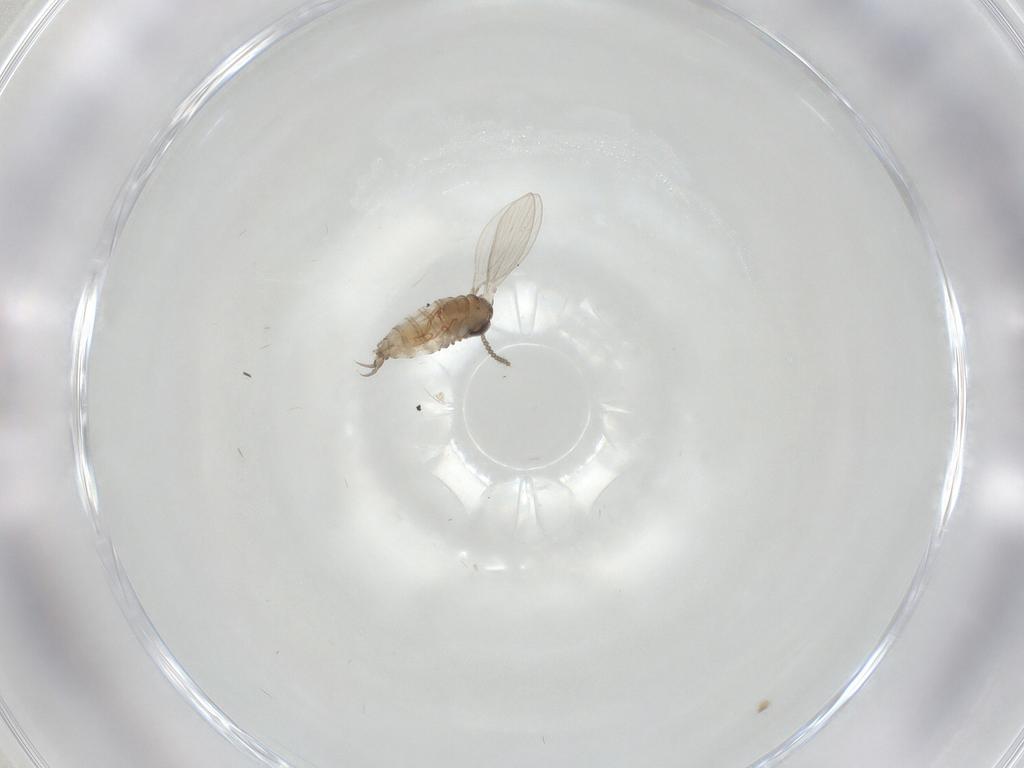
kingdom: Animalia
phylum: Arthropoda
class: Insecta
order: Diptera
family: Psychodidae
